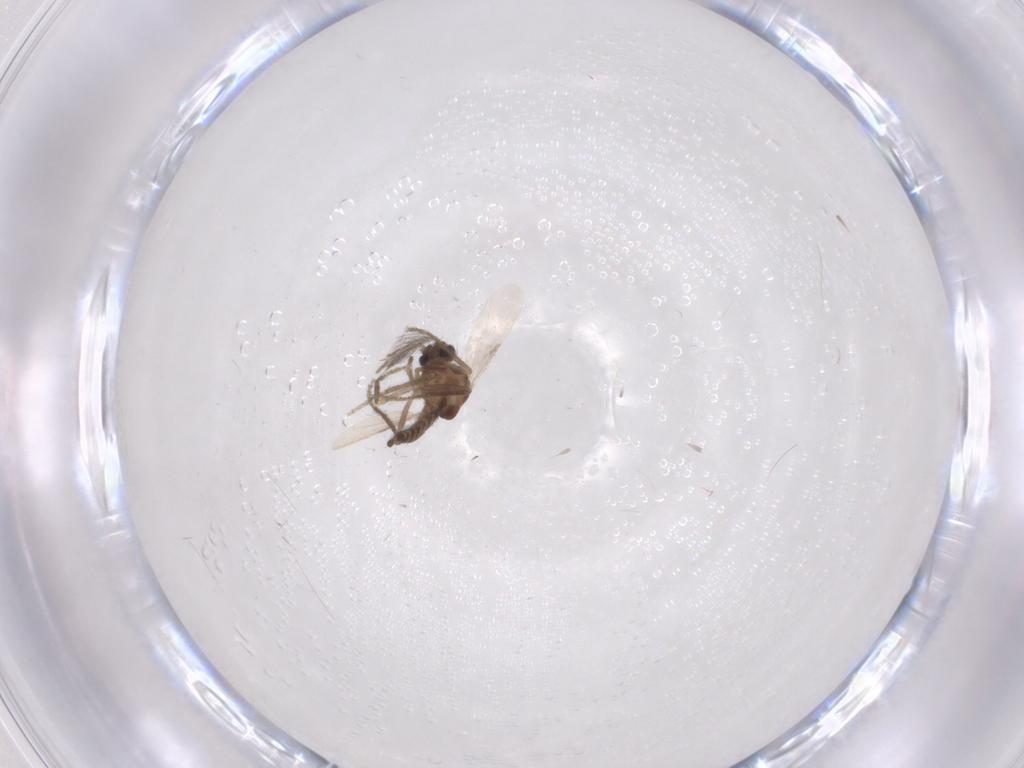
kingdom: Animalia
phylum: Arthropoda
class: Insecta
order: Diptera
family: Ceratopogonidae
